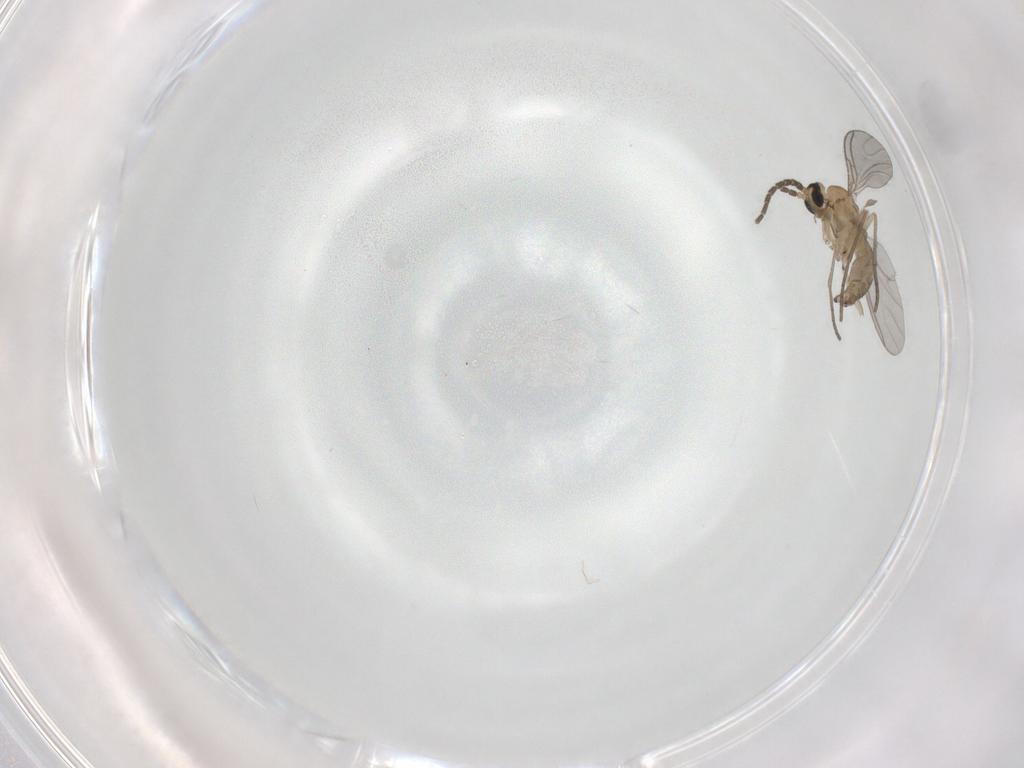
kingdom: Animalia
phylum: Arthropoda
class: Insecta
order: Diptera
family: Sciaridae
